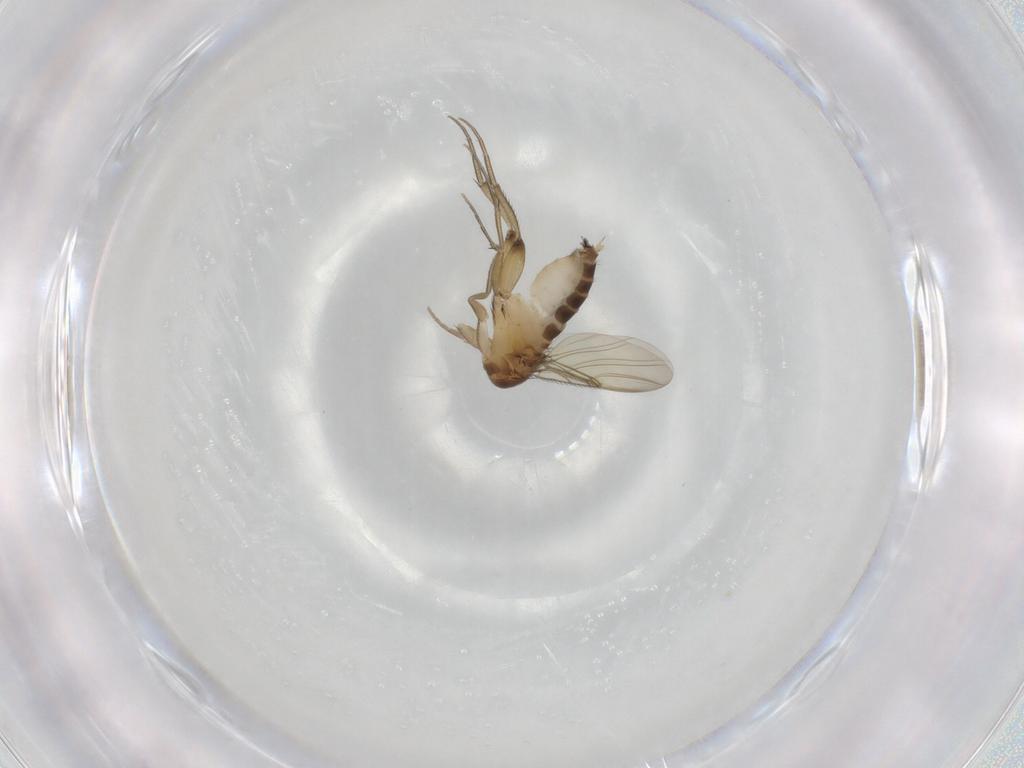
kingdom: Animalia
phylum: Arthropoda
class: Insecta
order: Diptera
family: Phoridae
